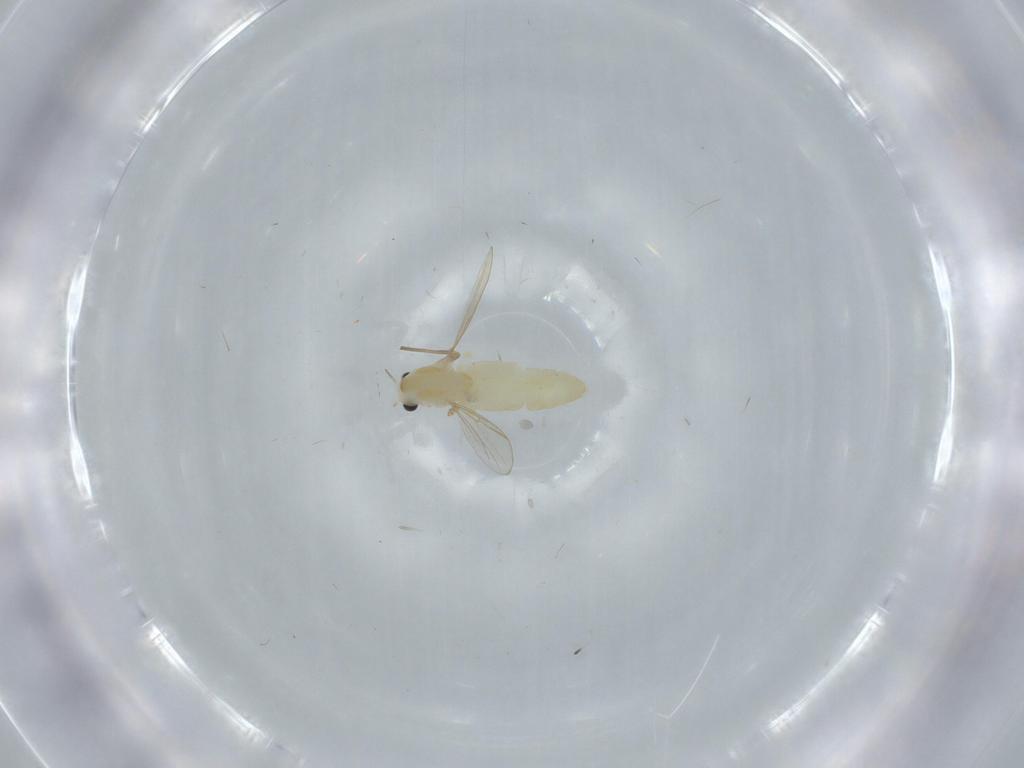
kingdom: Animalia
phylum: Arthropoda
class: Insecta
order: Diptera
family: Chironomidae
